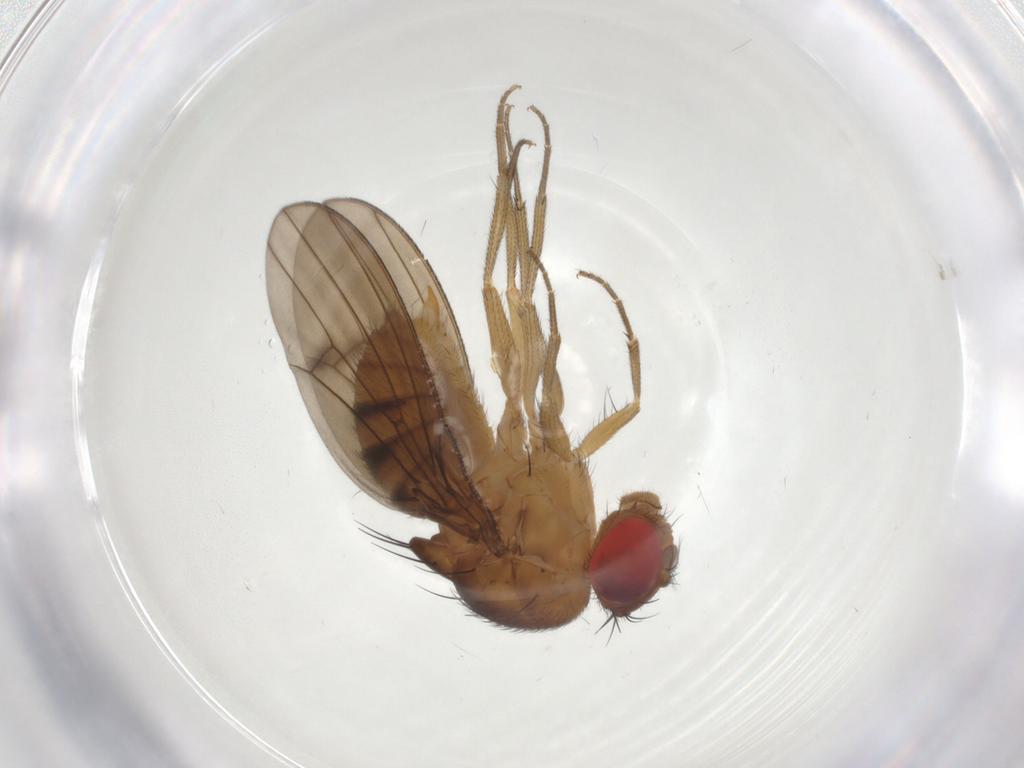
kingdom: Animalia
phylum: Arthropoda
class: Insecta
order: Diptera
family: Drosophilidae
